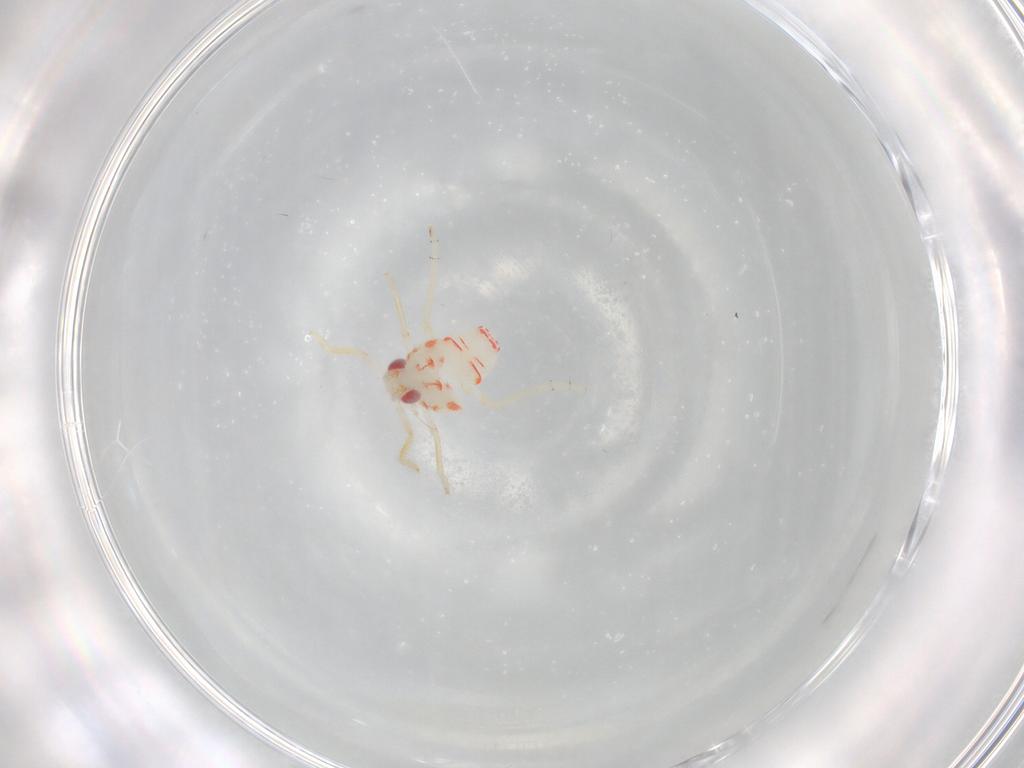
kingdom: Animalia
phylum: Arthropoda
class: Insecta
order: Hemiptera
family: Tropiduchidae
